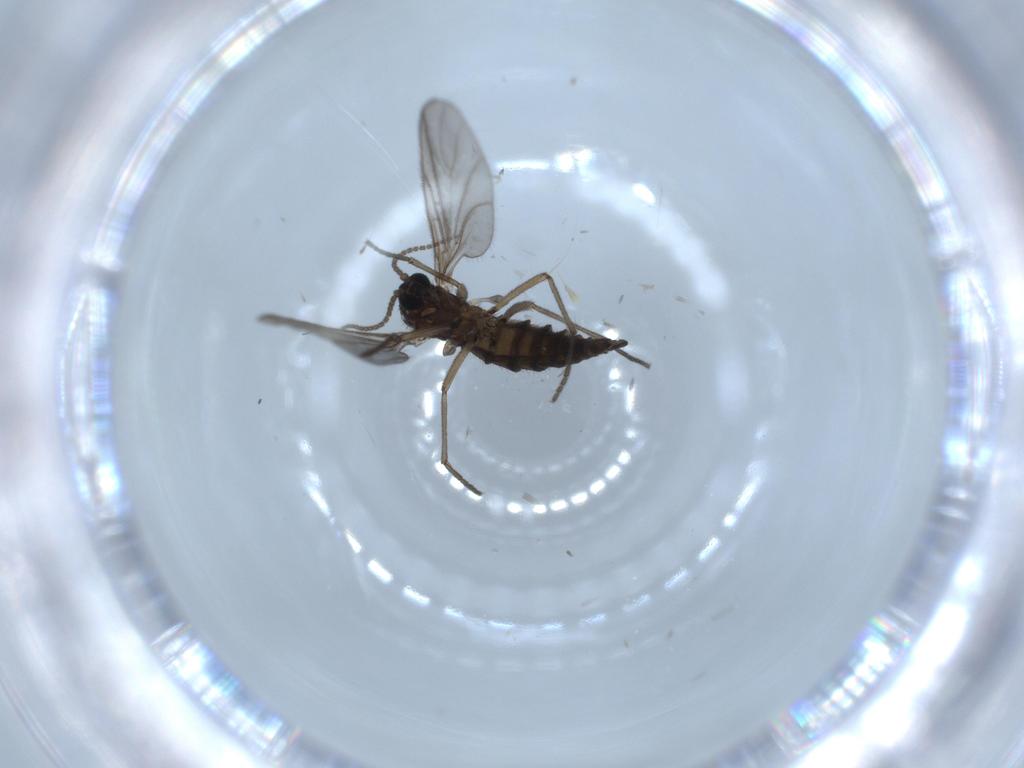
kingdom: Animalia
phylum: Arthropoda
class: Insecta
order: Diptera
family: Sciaridae
